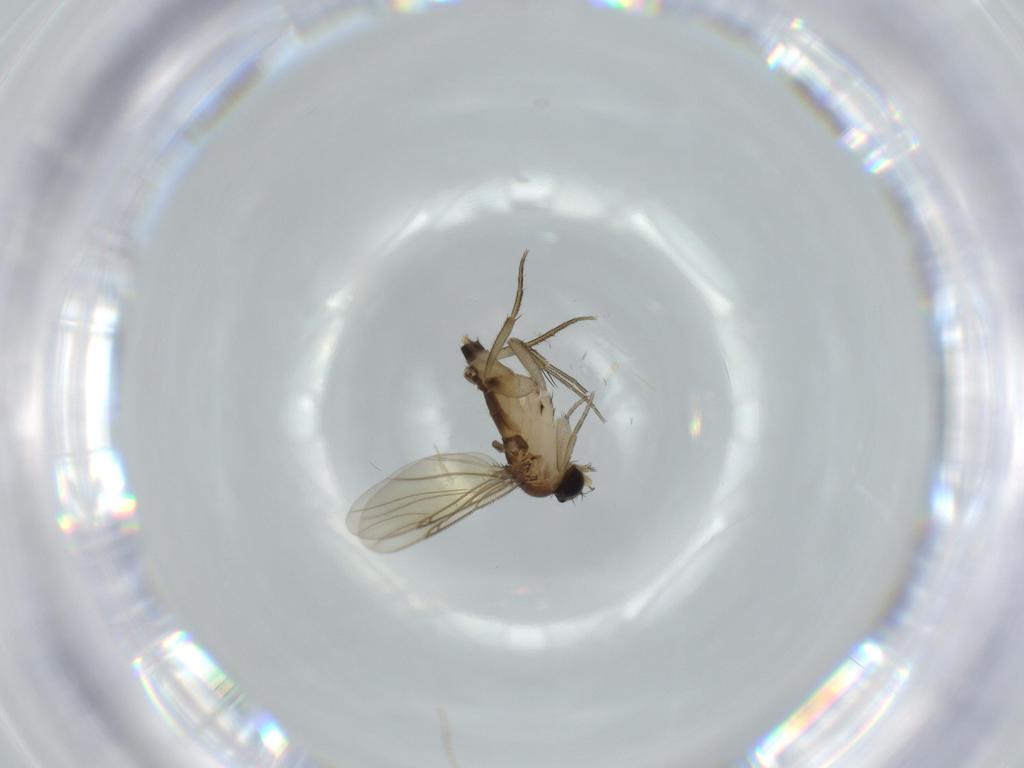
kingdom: Animalia
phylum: Arthropoda
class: Insecta
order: Diptera
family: Phoridae
